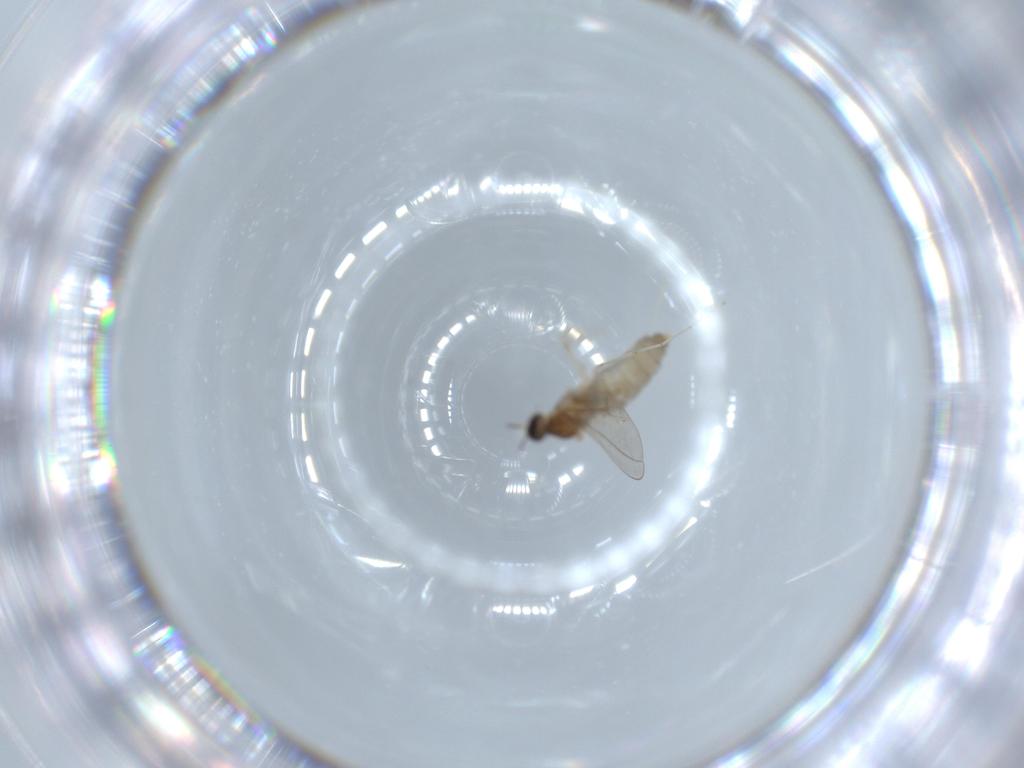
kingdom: Animalia
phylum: Arthropoda
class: Insecta
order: Diptera
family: Cecidomyiidae
